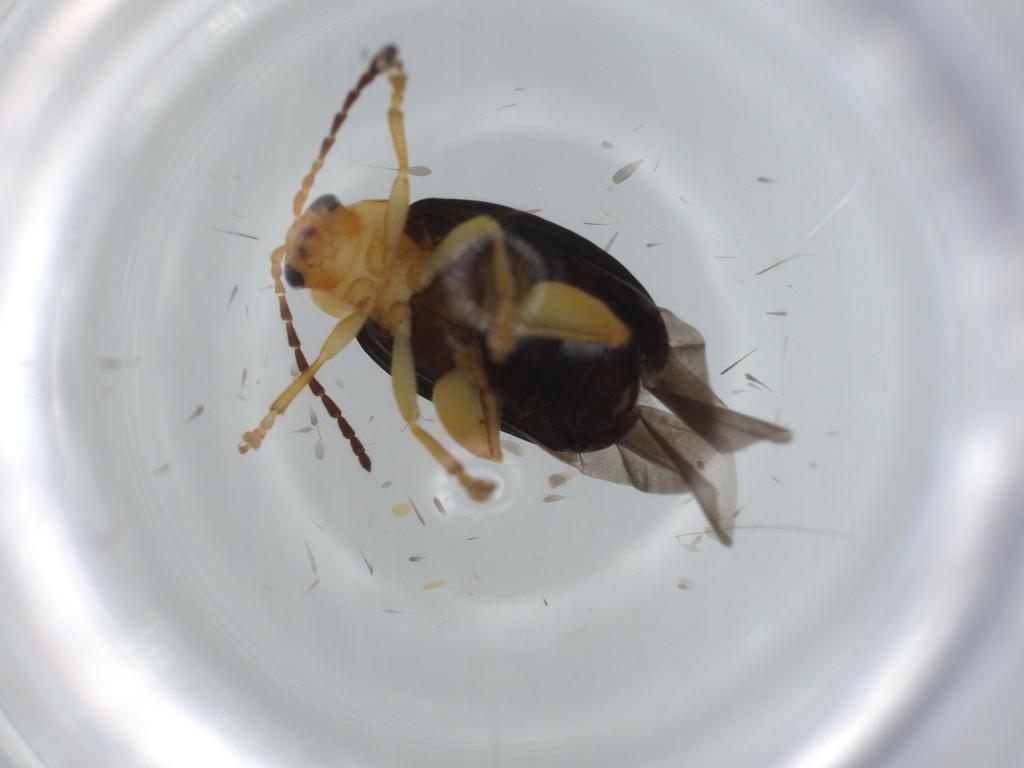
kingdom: Animalia
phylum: Arthropoda
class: Insecta
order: Coleoptera
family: Chrysomelidae
